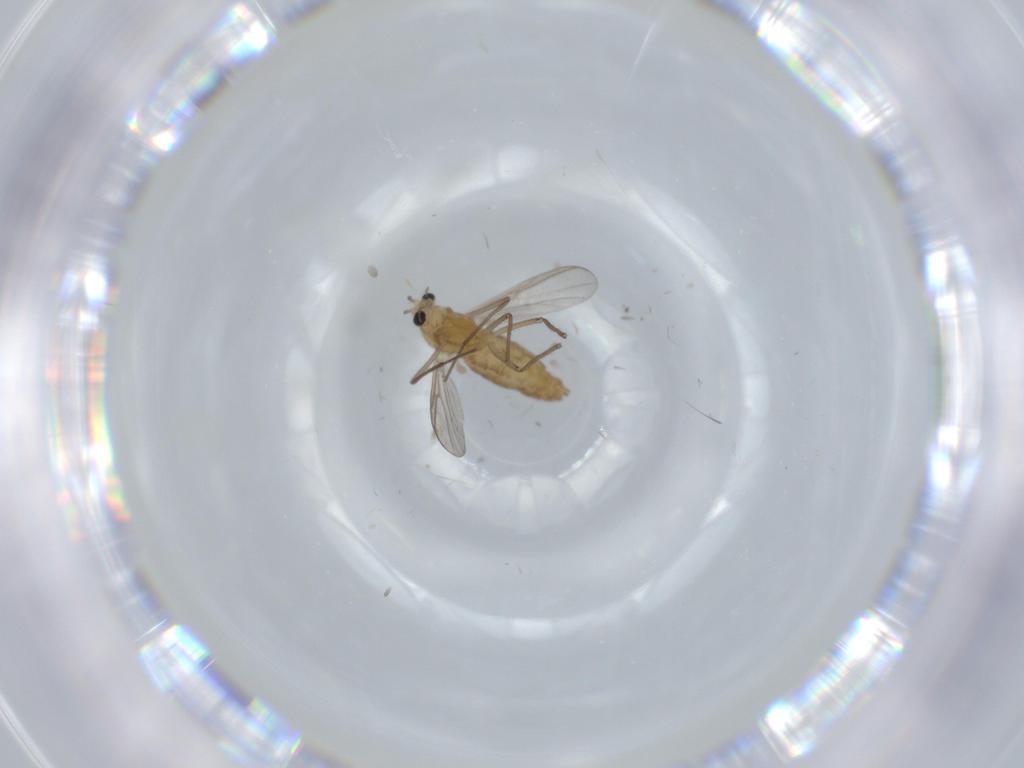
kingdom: Animalia
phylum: Arthropoda
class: Insecta
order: Diptera
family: Chironomidae
